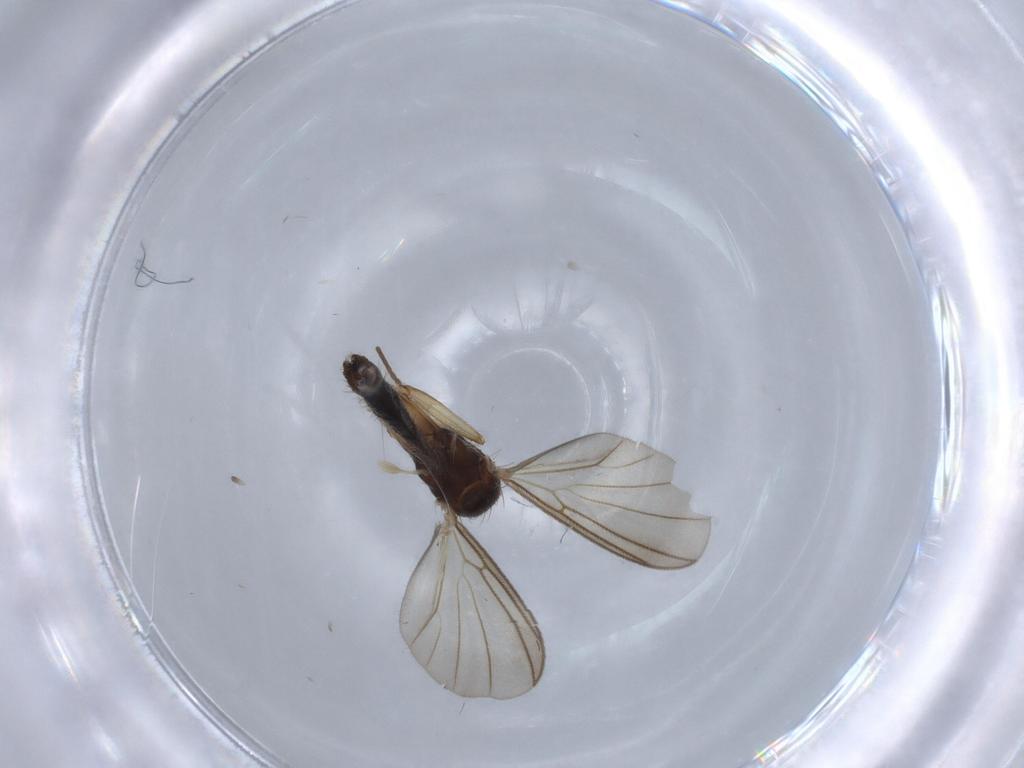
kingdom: Animalia
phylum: Arthropoda
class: Insecta
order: Diptera
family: Mycetophilidae
